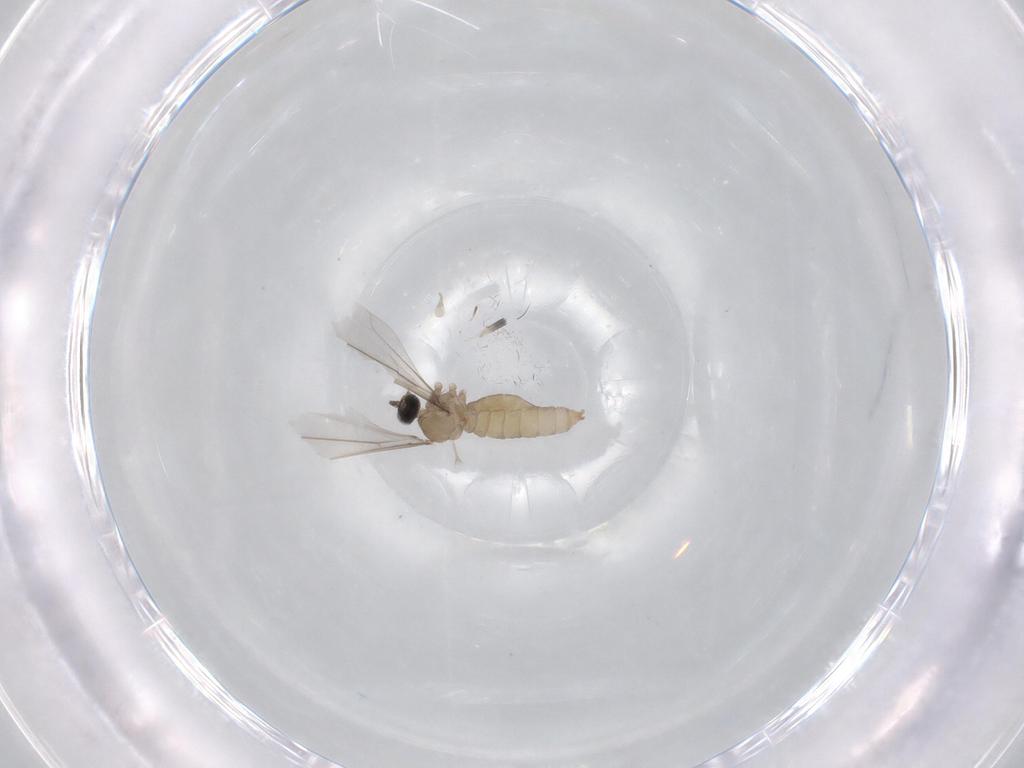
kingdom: Animalia
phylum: Arthropoda
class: Insecta
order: Diptera
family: Cecidomyiidae
